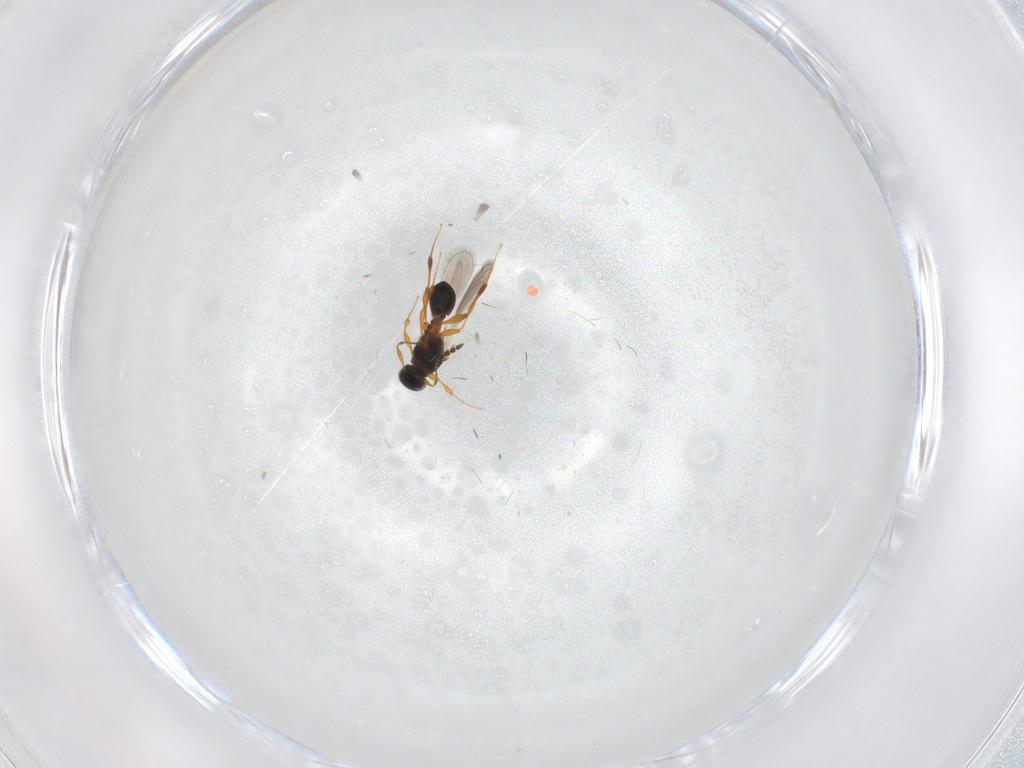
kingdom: Animalia
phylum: Arthropoda
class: Insecta
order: Hymenoptera
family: Platygastridae
